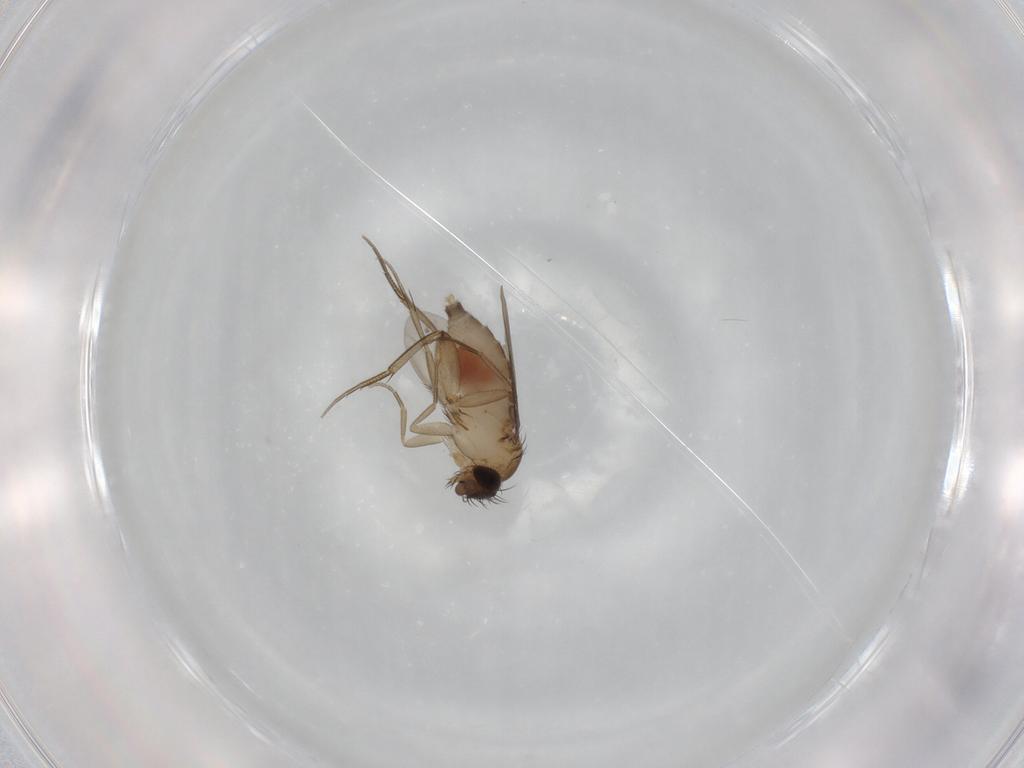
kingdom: Animalia
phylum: Arthropoda
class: Insecta
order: Diptera
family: Phoridae
